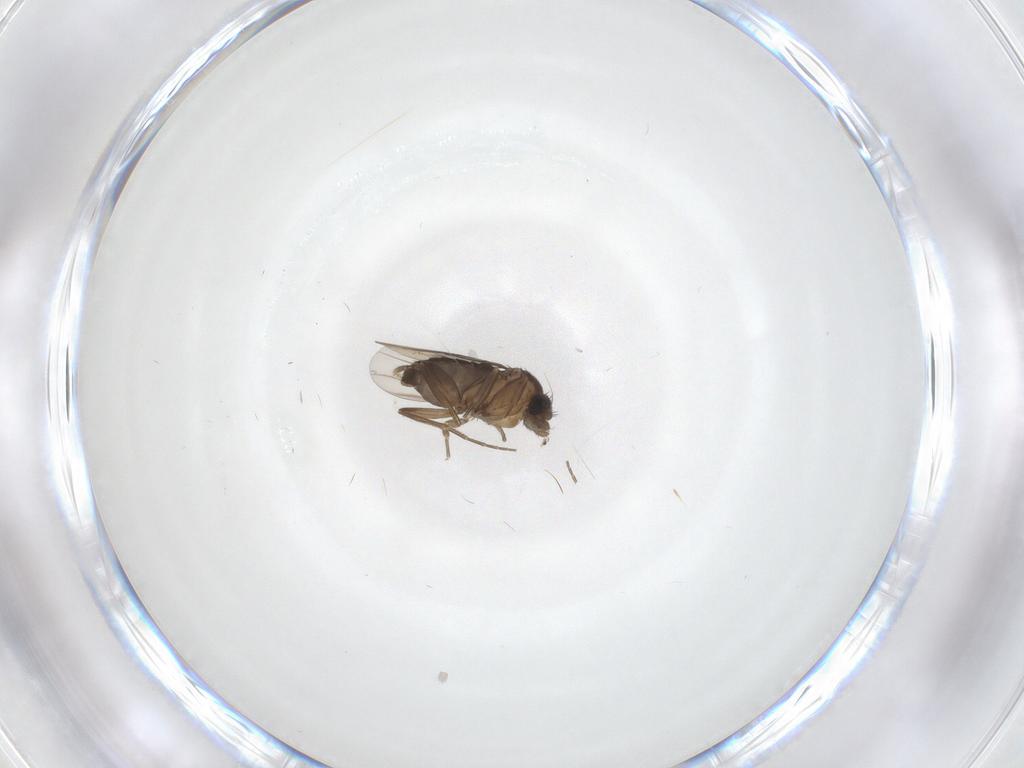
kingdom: Animalia
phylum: Arthropoda
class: Insecta
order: Diptera
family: Phoridae
